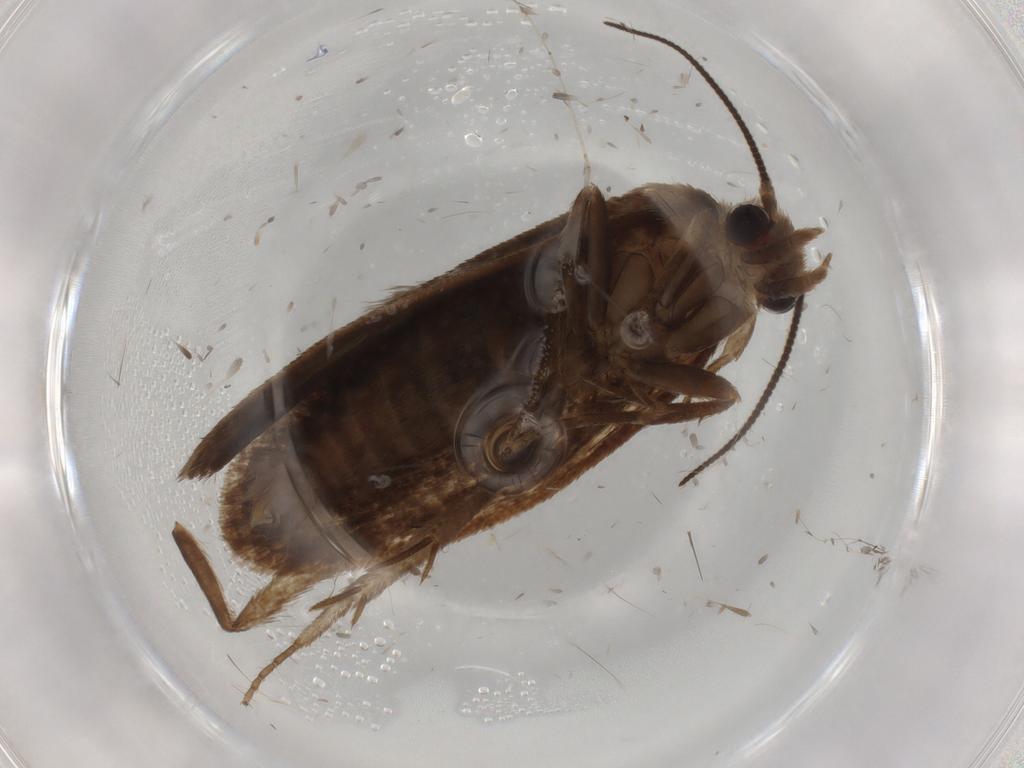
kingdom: Animalia
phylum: Arthropoda
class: Insecta
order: Lepidoptera
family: Tineidae
